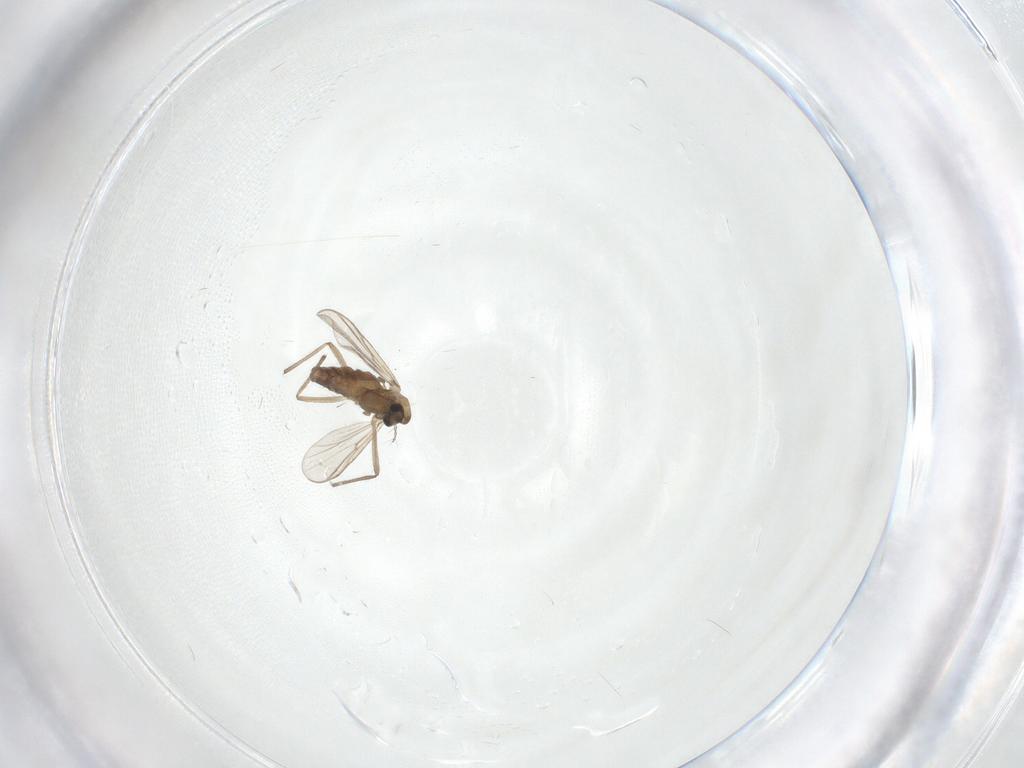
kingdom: Animalia
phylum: Arthropoda
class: Insecta
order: Diptera
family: Chironomidae
